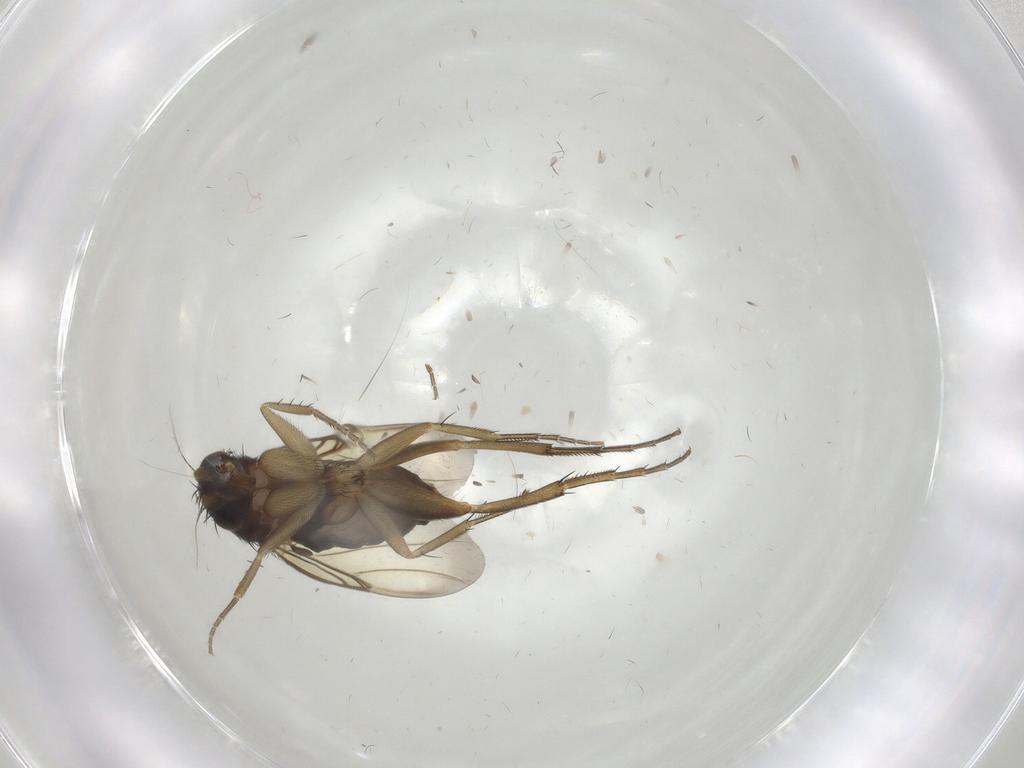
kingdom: Animalia
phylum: Arthropoda
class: Insecta
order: Diptera
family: Phoridae
